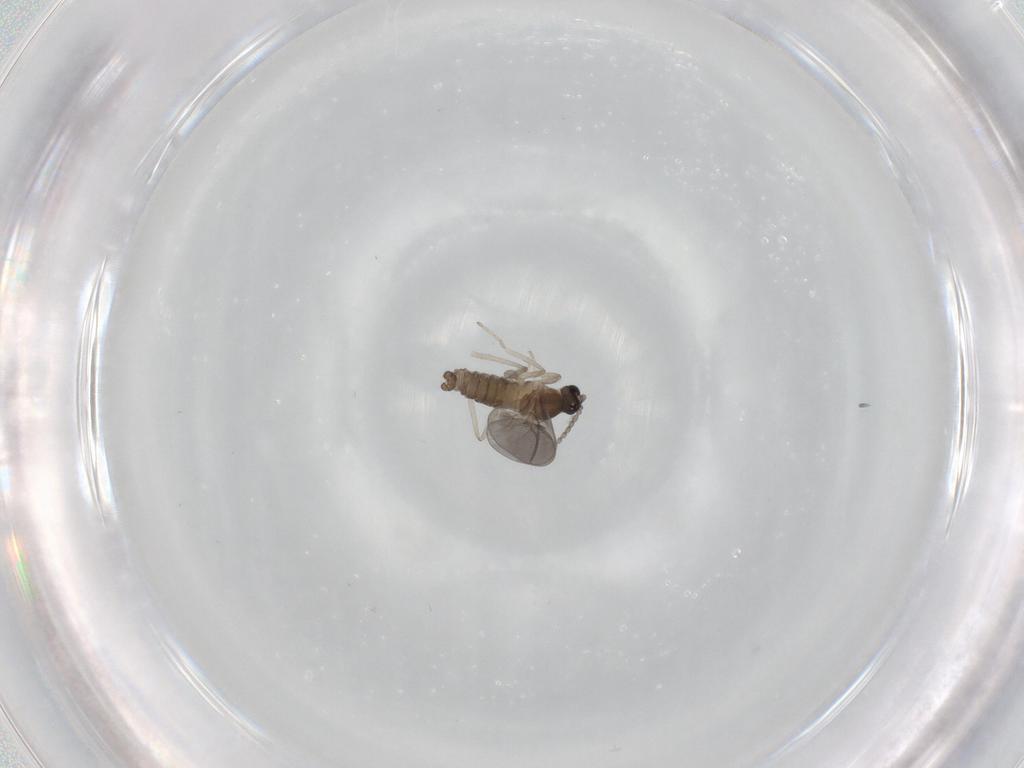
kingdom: Animalia
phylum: Arthropoda
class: Insecta
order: Diptera
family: Cecidomyiidae
